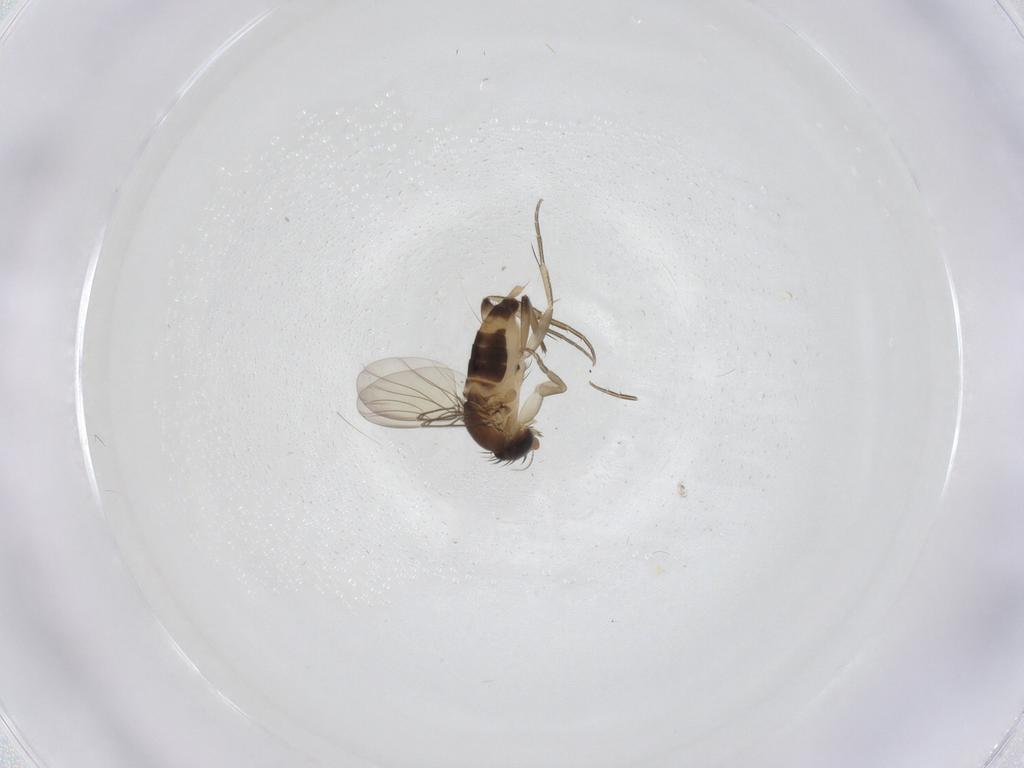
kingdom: Animalia
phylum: Arthropoda
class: Insecta
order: Diptera
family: Phoridae
